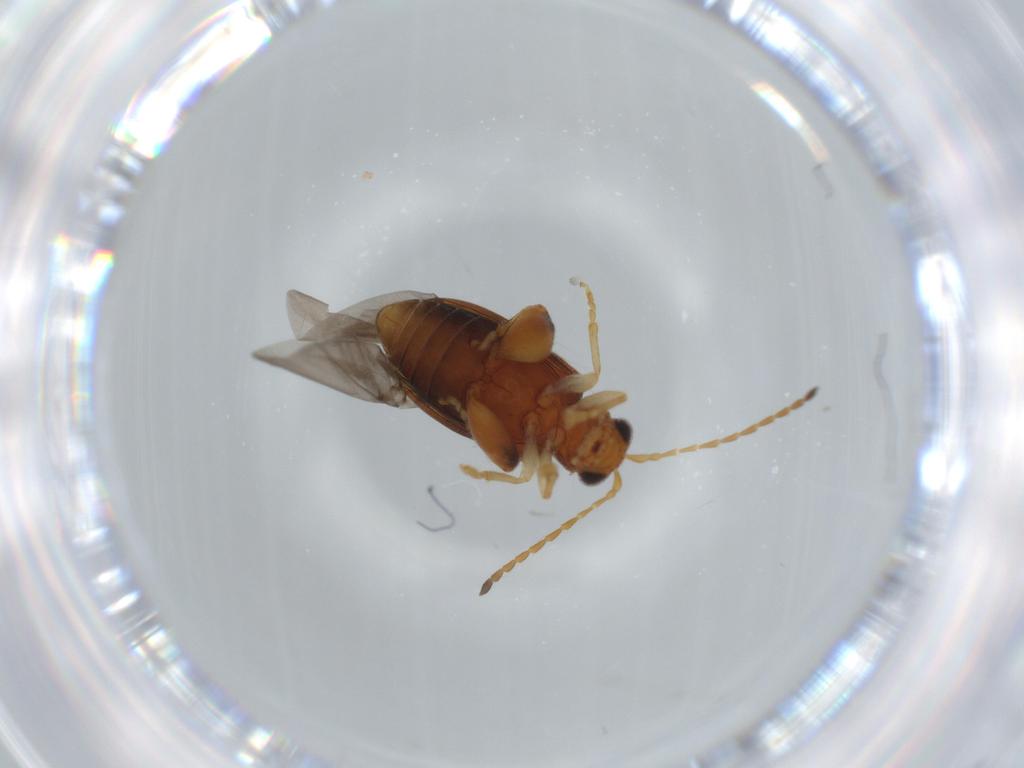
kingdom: Animalia
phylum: Arthropoda
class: Insecta
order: Coleoptera
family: Chrysomelidae
